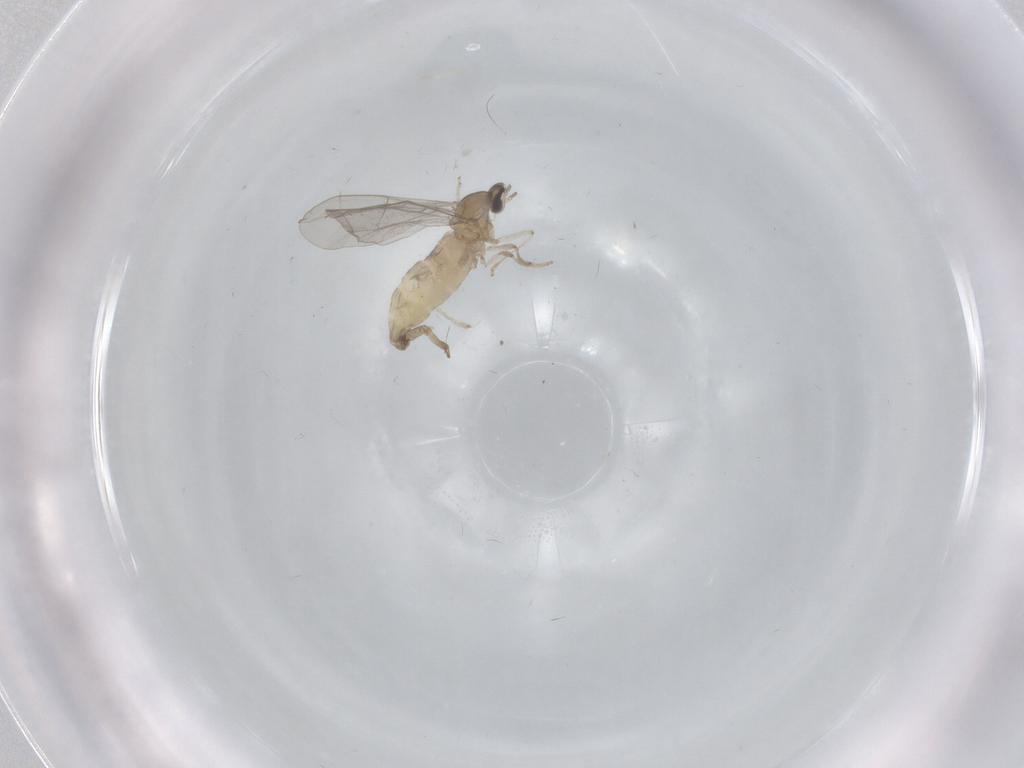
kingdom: Animalia
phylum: Arthropoda
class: Insecta
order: Diptera
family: Cecidomyiidae
